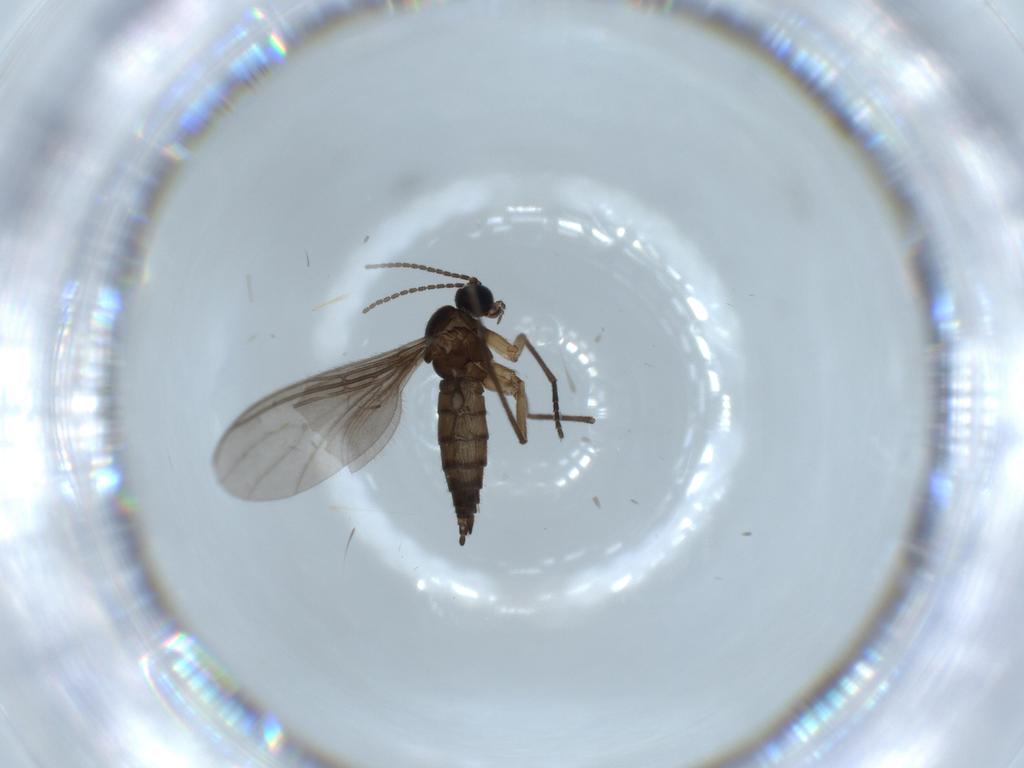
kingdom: Animalia
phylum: Arthropoda
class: Insecta
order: Diptera
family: Sciaridae
